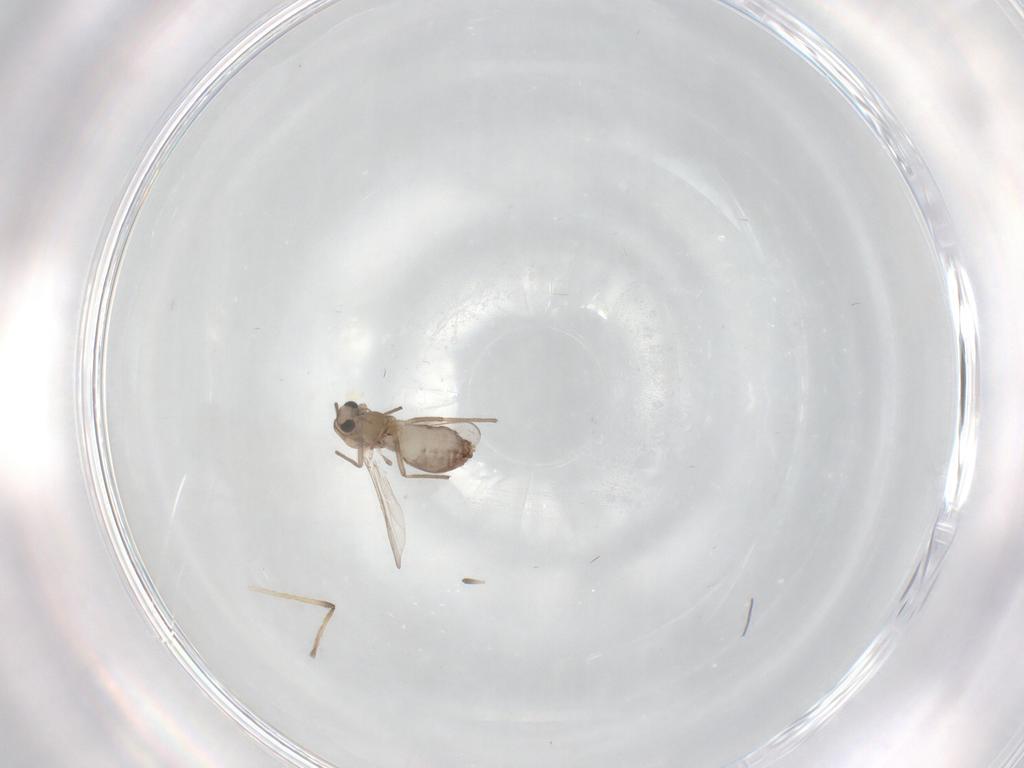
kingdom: Animalia
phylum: Arthropoda
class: Insecta
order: Diptera
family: Chironomidae
